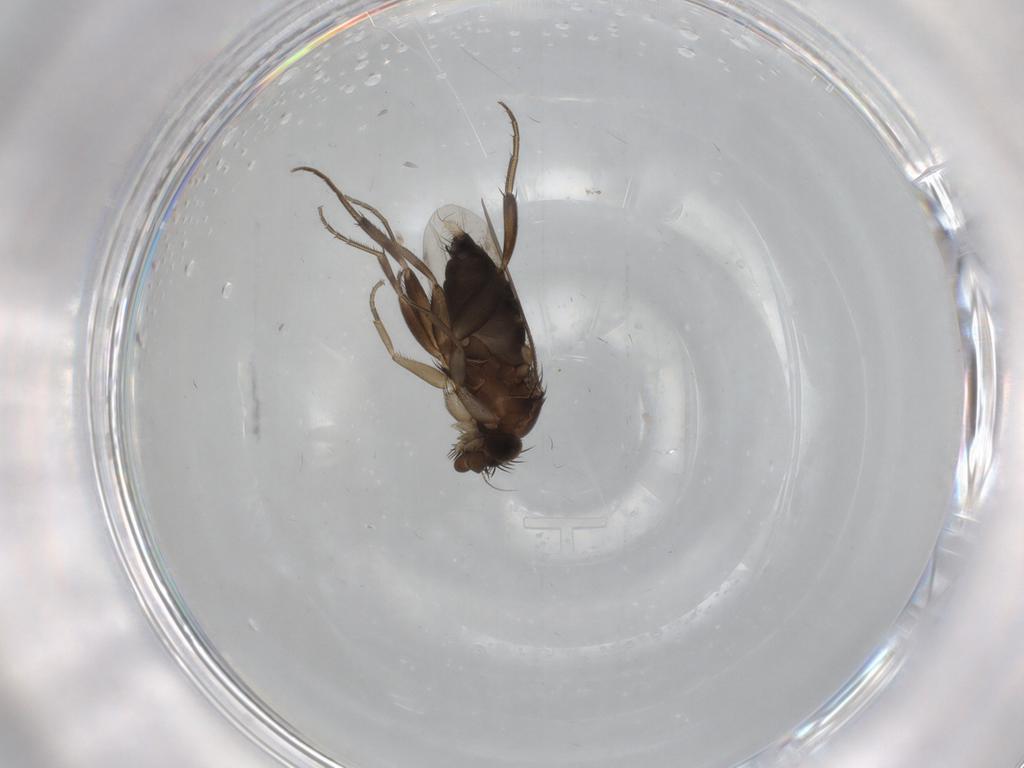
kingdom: Animalia
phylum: Arthropoda
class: Insecta
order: Diptera
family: Phoridae
